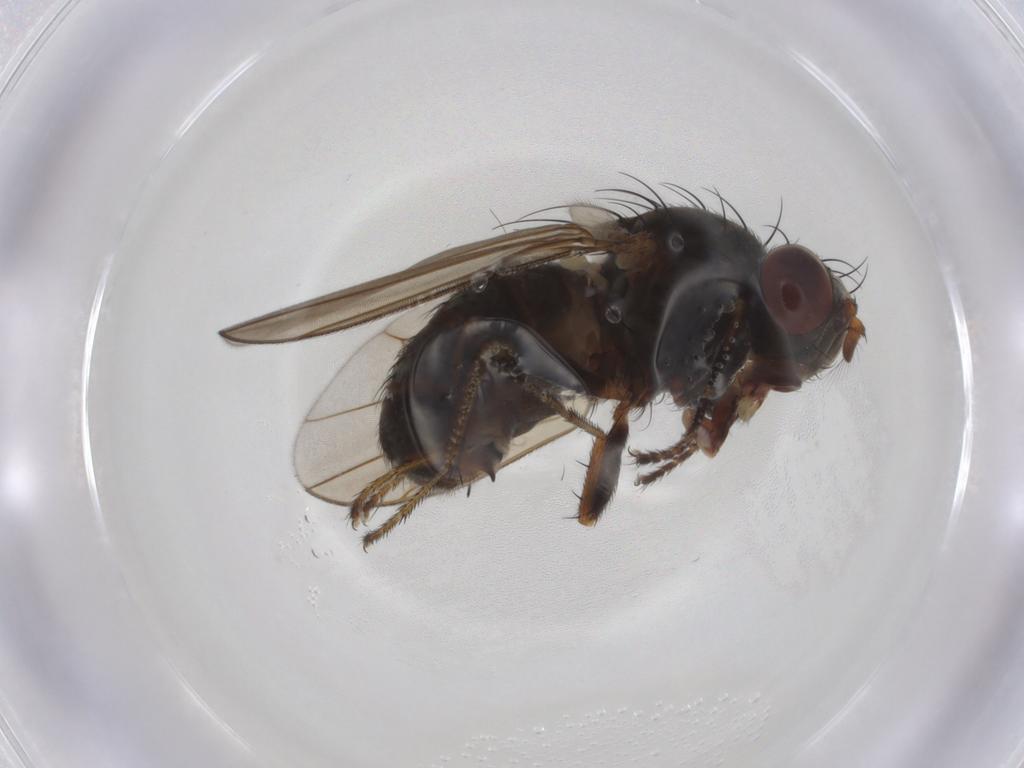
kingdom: Animalia
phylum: Arthropoda
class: Insecta
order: Diptera
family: Ephydridae
